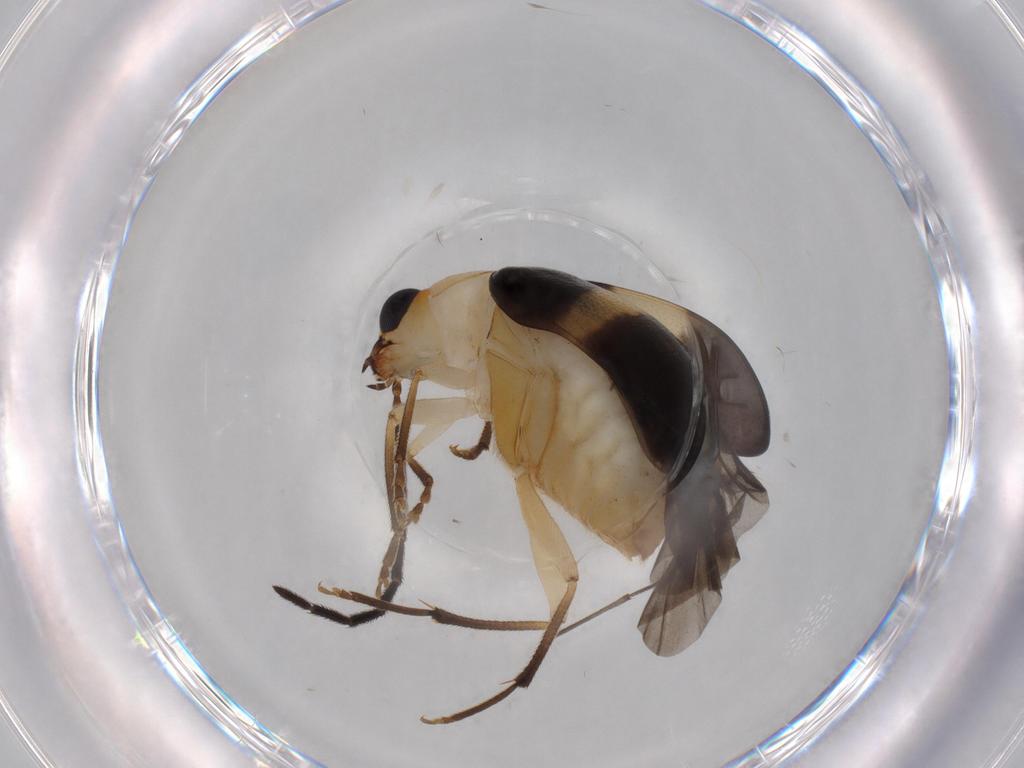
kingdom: Animalia
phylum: Arthropoda
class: Insecta
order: Coleoptera
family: Chrysomelidae
